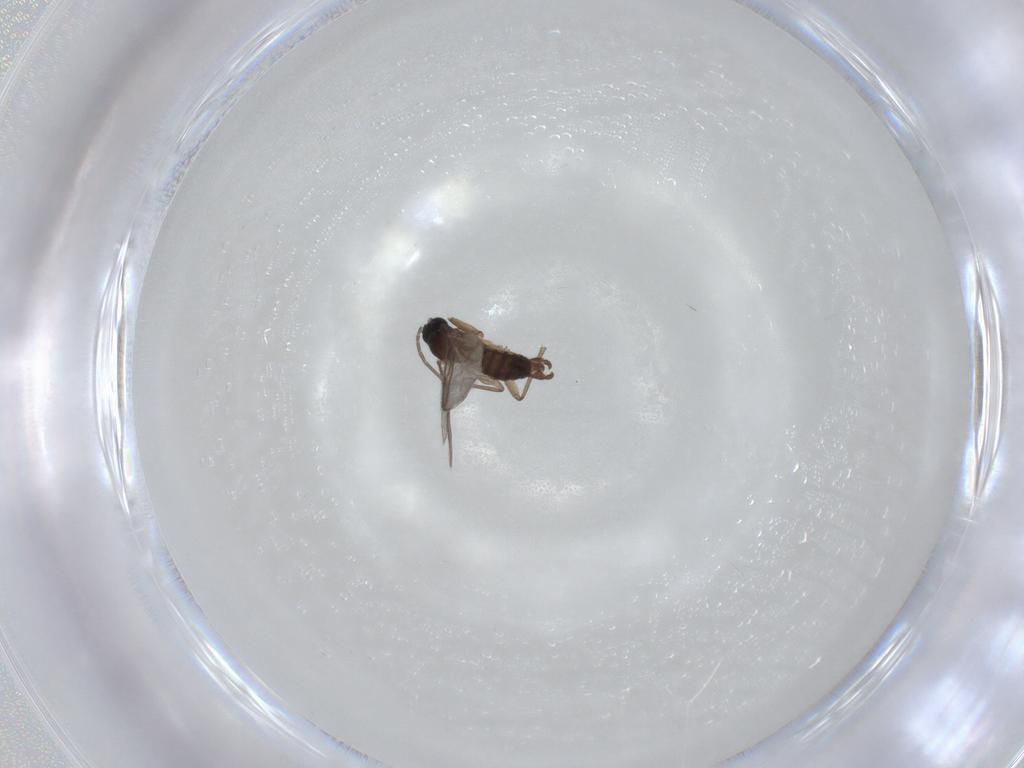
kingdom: Animalia
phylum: Arthropoda
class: Insecta
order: Diptera
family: Sciaridae
